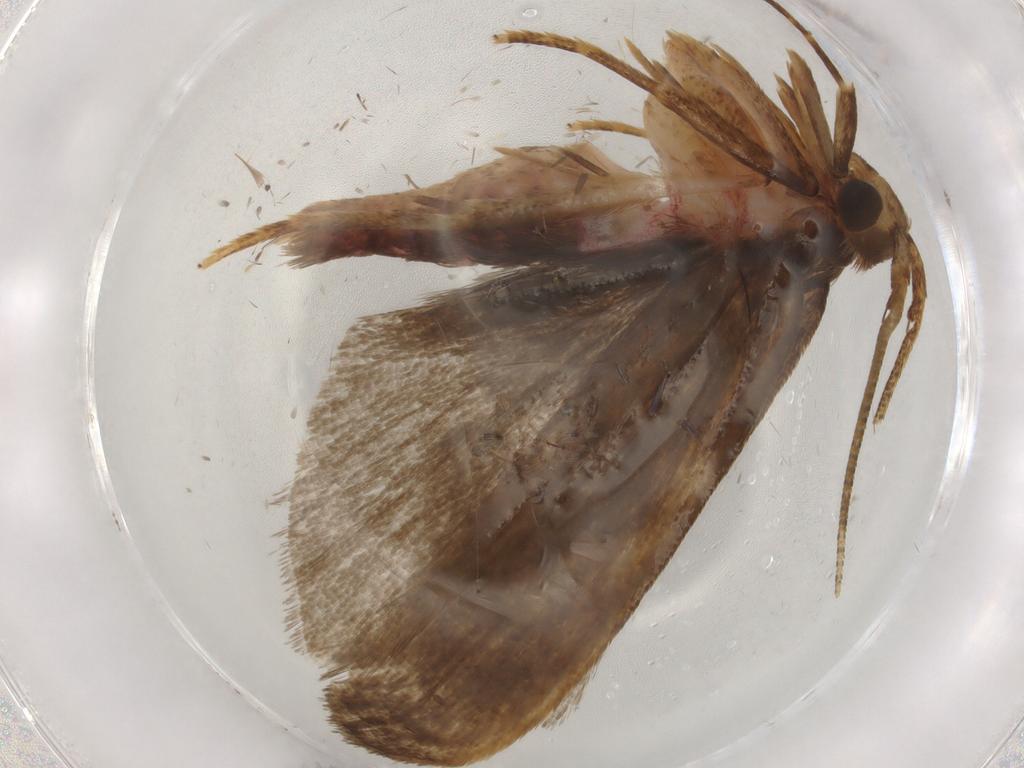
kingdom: Animalia
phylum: Arthropoda
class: Insecta
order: Lepidoptera
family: Autostichidae
